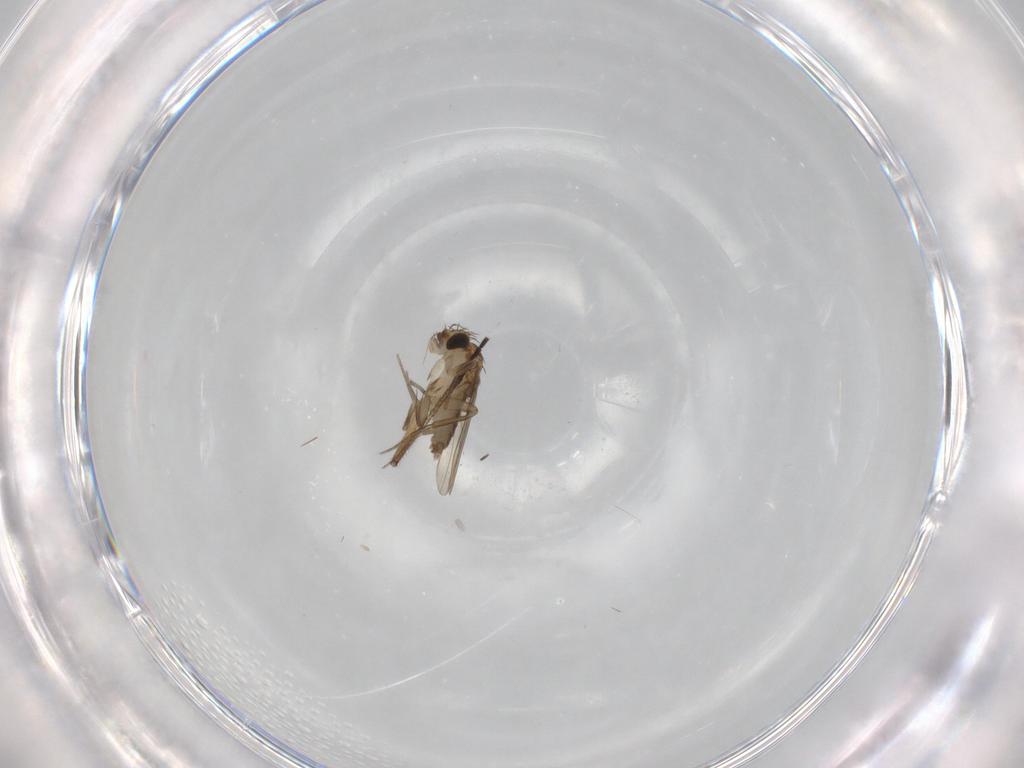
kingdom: Animalia
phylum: Arthropoda
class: Insecta
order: Diptera
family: Phoridae
